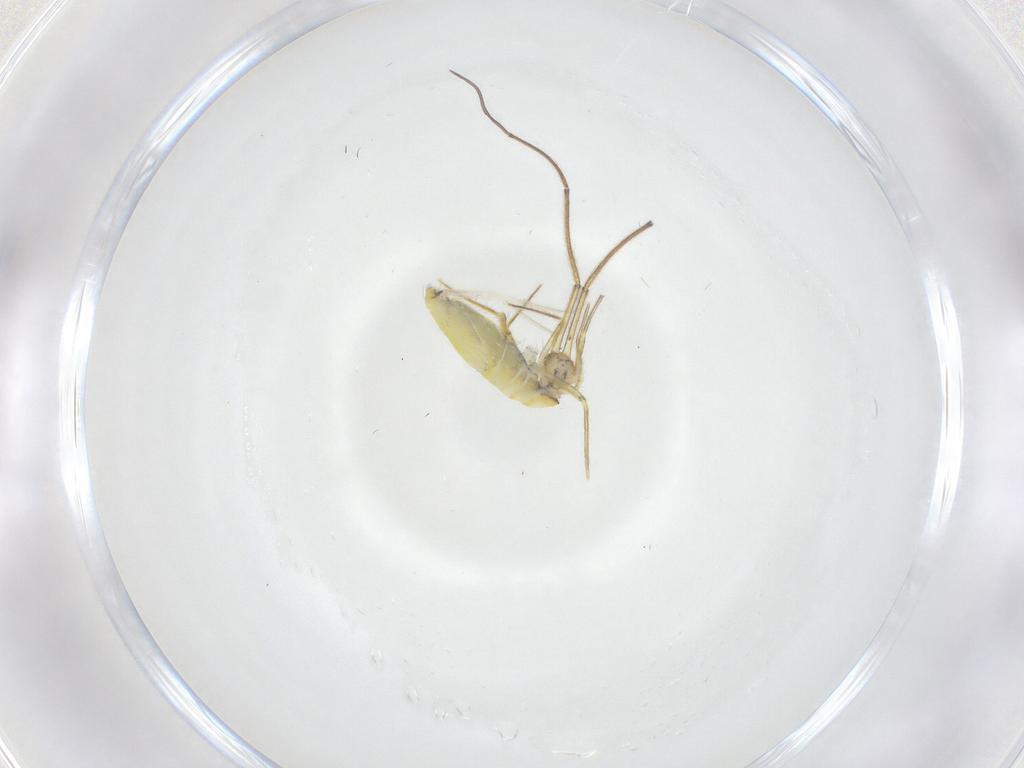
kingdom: Animalia
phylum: Arthropoda
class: Collembola
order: Entomobryomorpha
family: Entomobryidae
